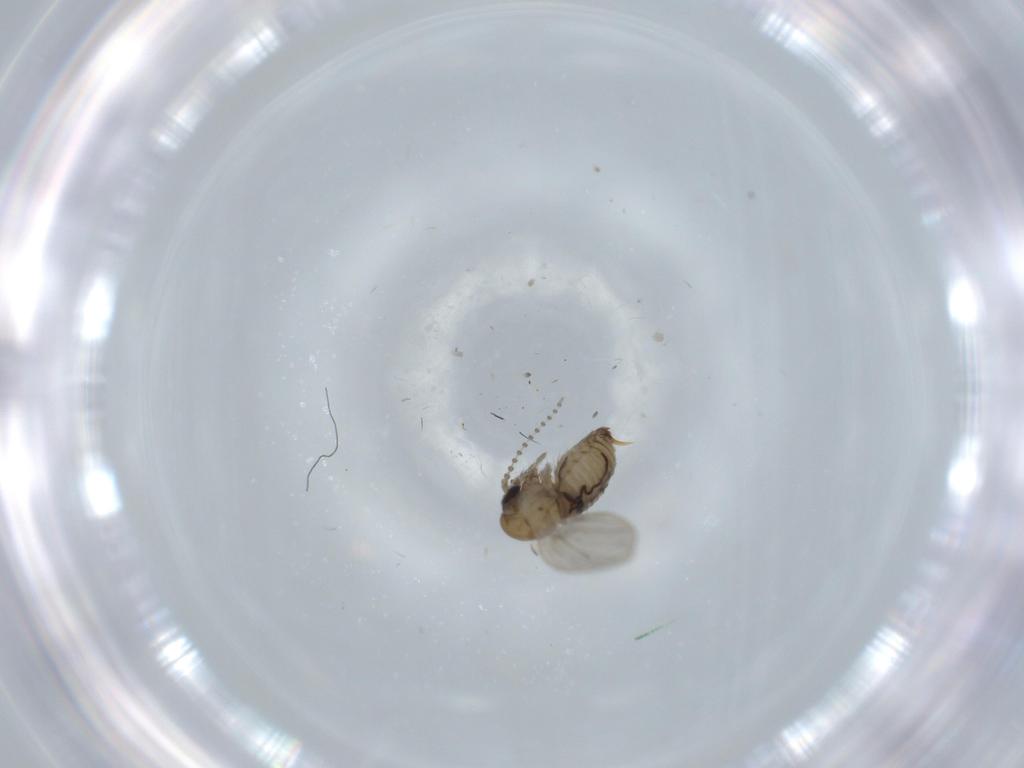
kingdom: Animalia
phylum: Arthropoda
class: Insecta
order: Diptera
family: Psychodidae
